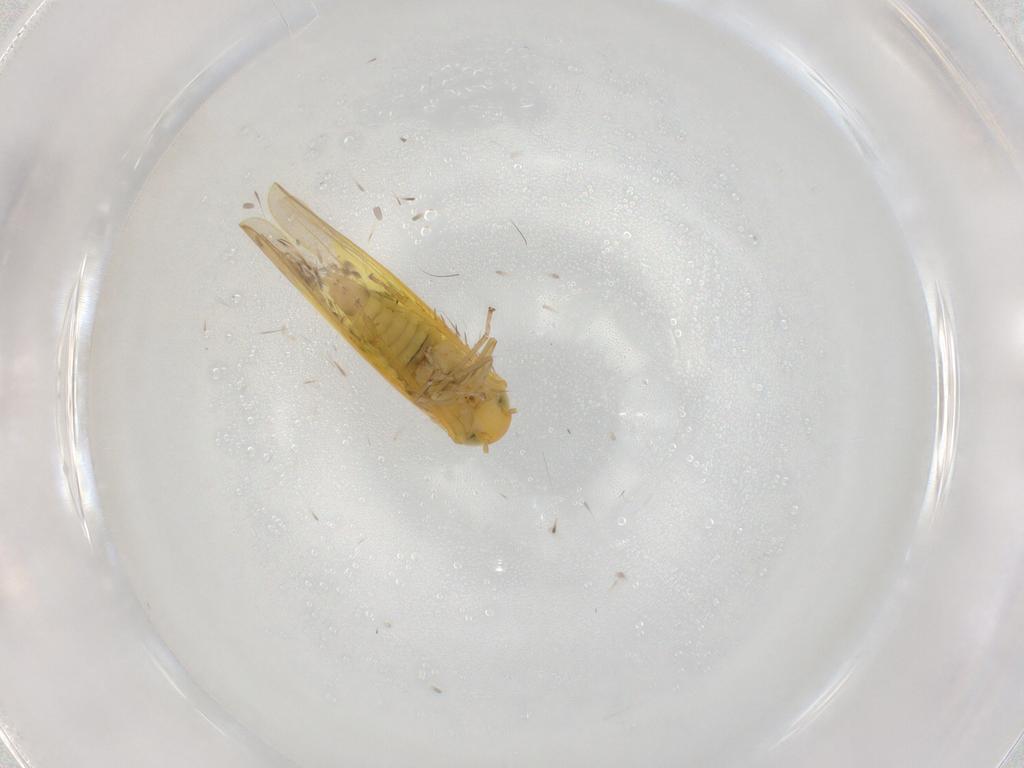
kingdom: Animalia
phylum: Arthropoda
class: Insecta
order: Hemiptera
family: Cicadellidae
